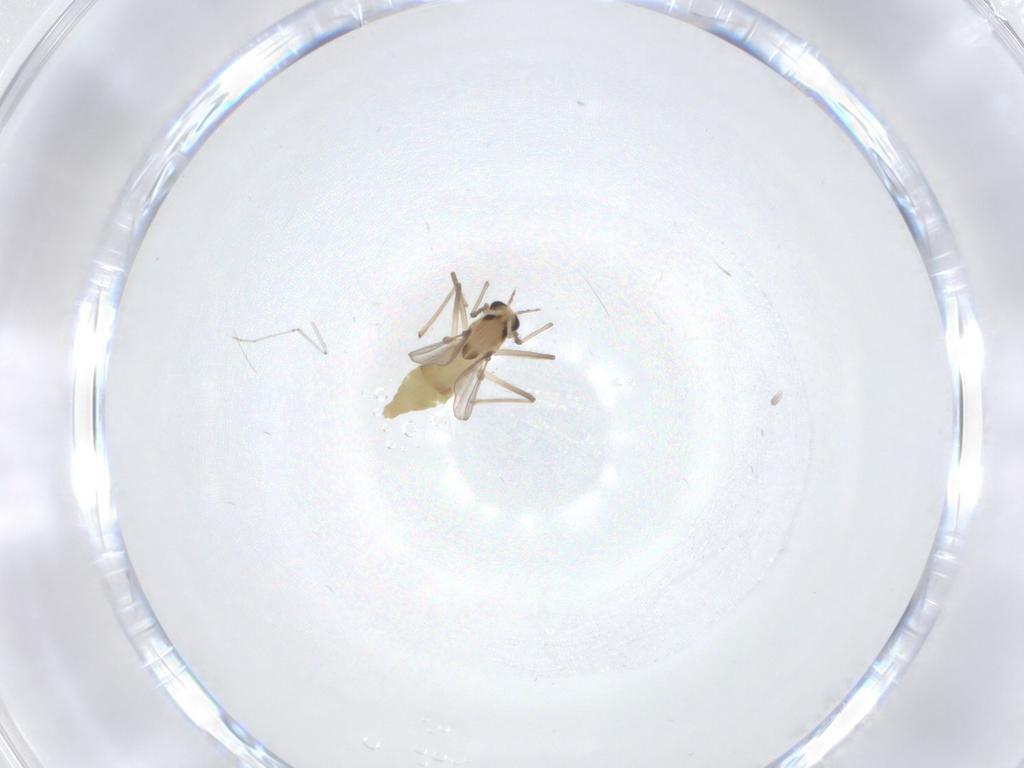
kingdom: Animalia
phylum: Arthropoda
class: Insecta
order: Diptera
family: Chironomidae
